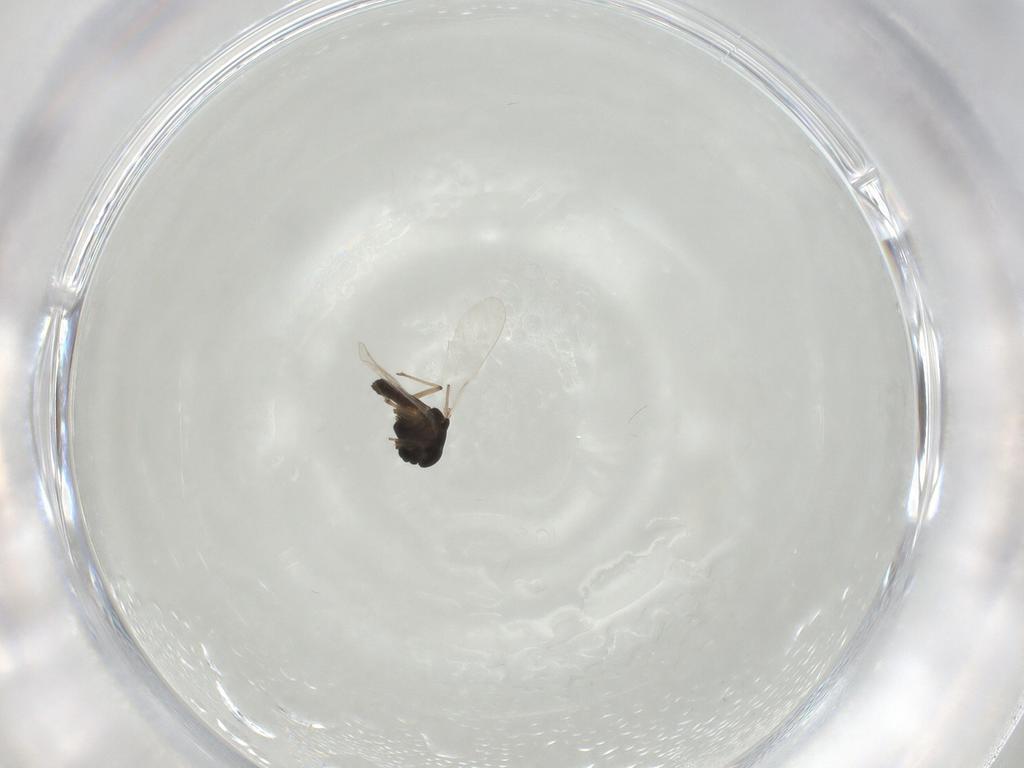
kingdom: Animalia
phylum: Arthropoda
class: Insecta
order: Diptera
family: Chironomidae
